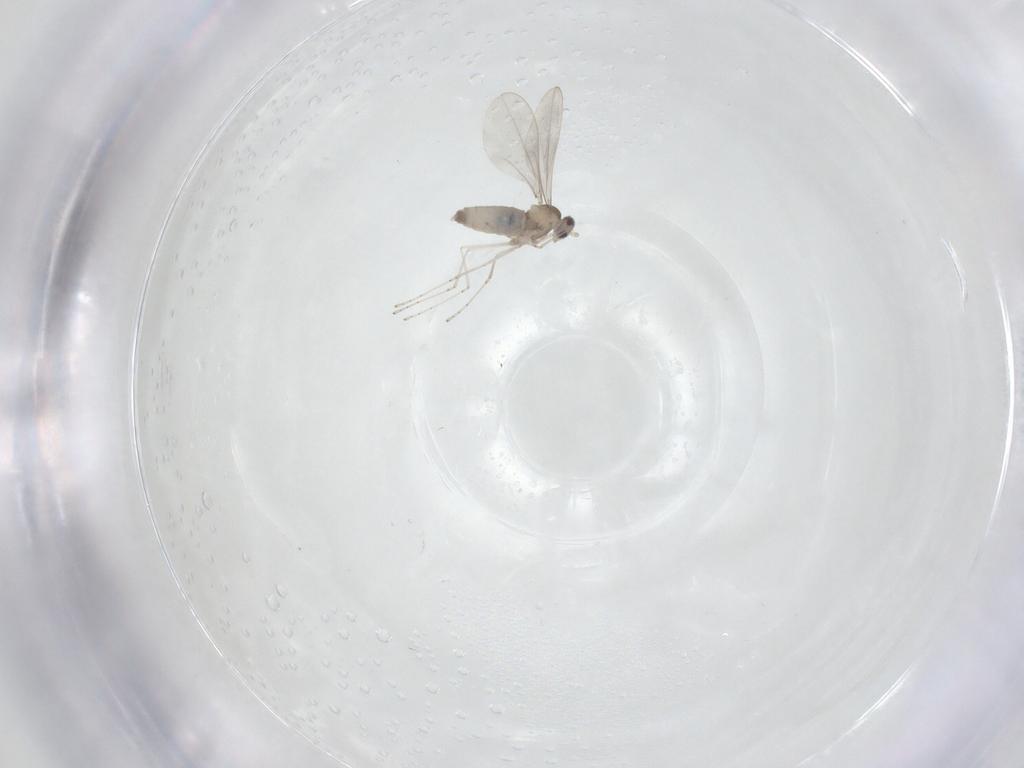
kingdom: Animalia
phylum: Arthropoda
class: Insecta
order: Diptera
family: Cecidomyiidae
